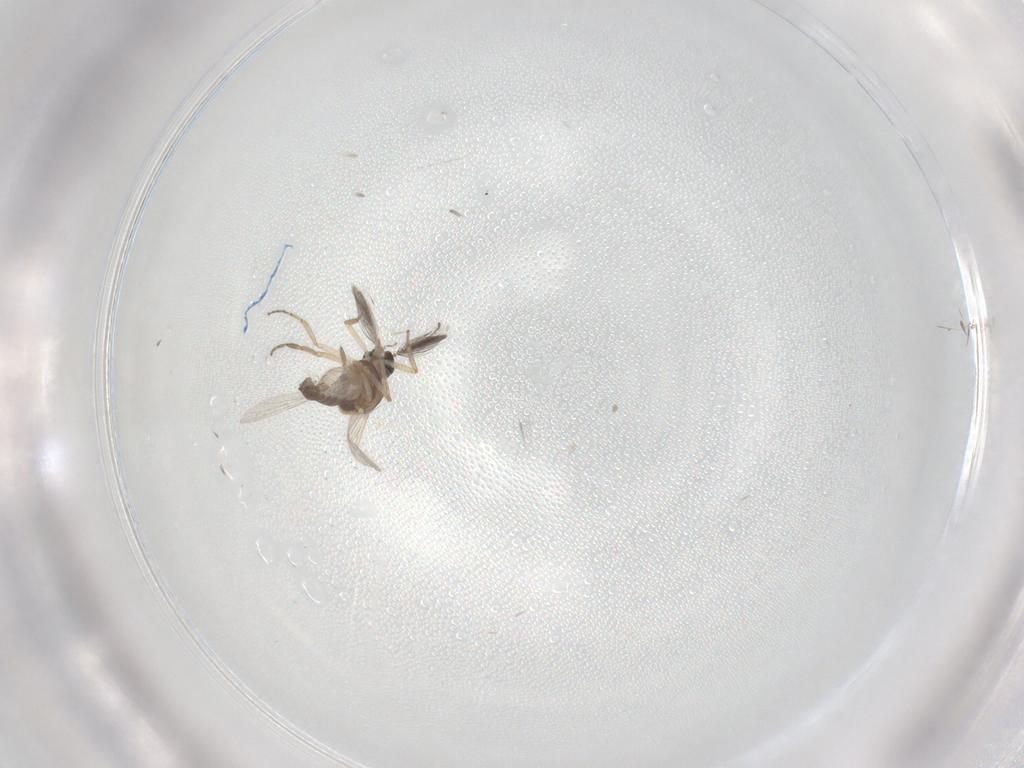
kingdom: Animalia
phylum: Arthropoda
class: Insecta
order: Diptera
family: Ceratopogonidae
